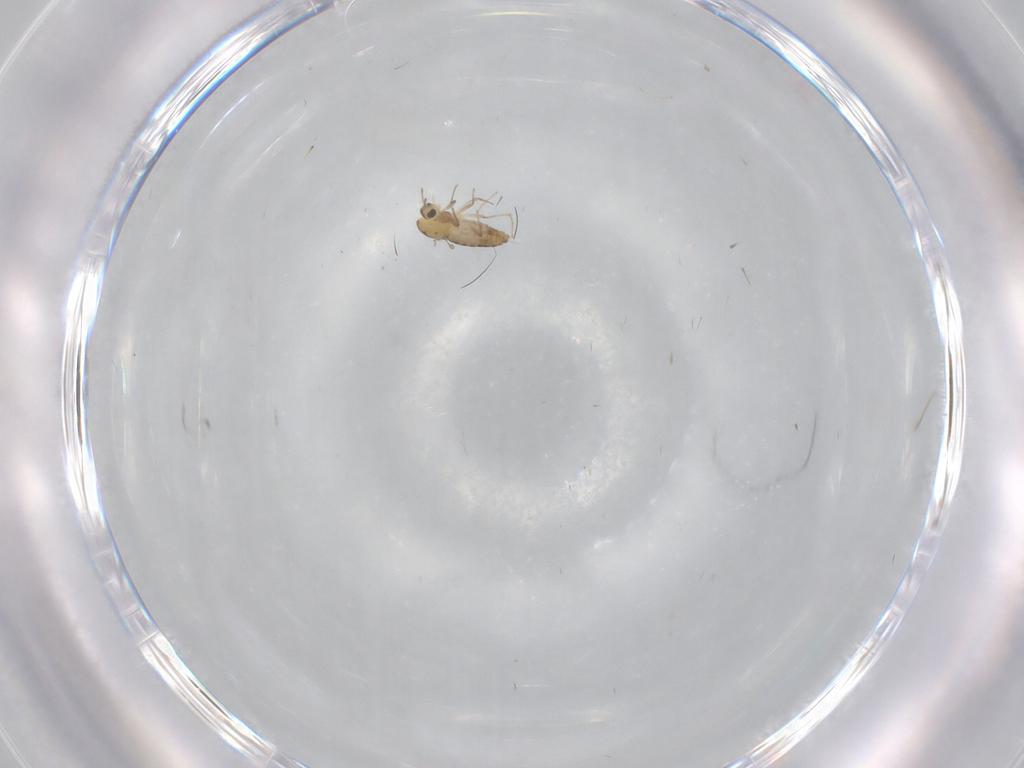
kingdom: Animalia
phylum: Arthropoda
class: Insecta
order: Diptera
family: Chironomidae
